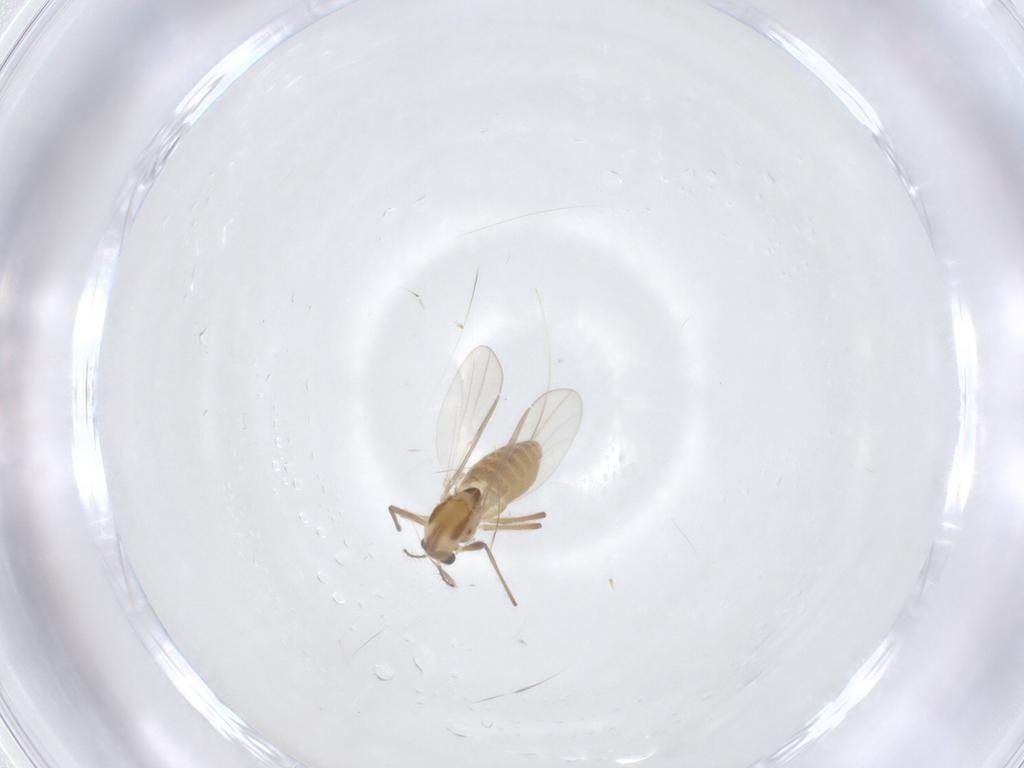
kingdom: Animalia
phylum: Arthropoda
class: Insecta
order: Diptera
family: Chironomidae
